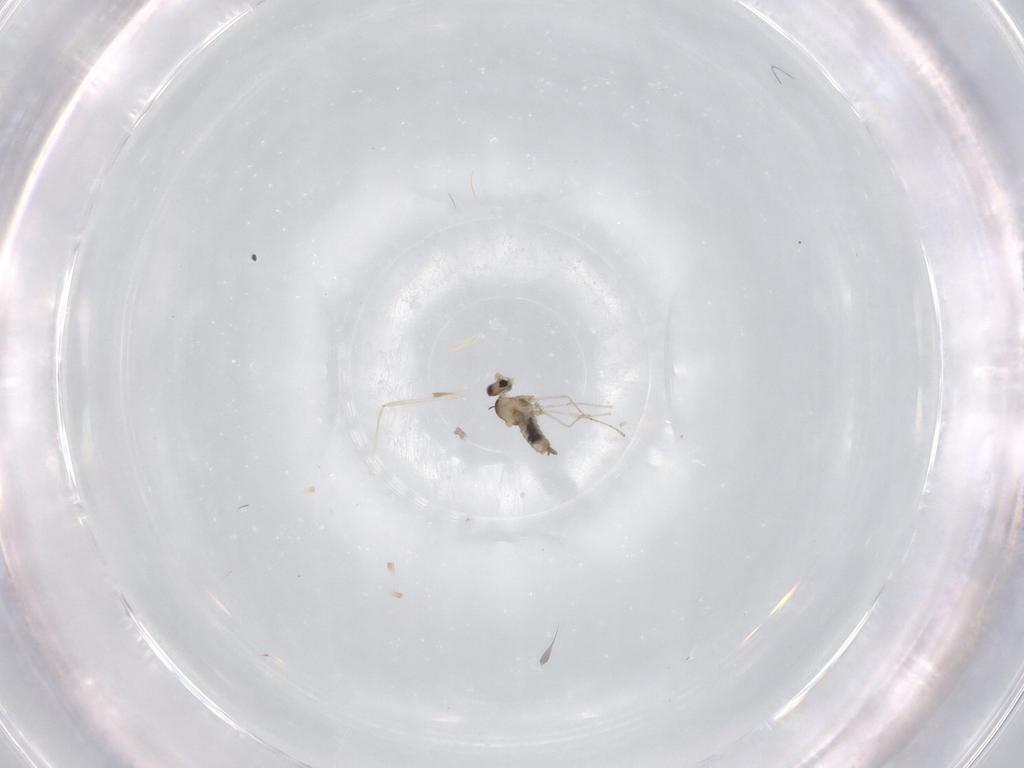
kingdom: Animalia
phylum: Arthropoda
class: Insecta
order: Diptera
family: Cecidomyiidae
